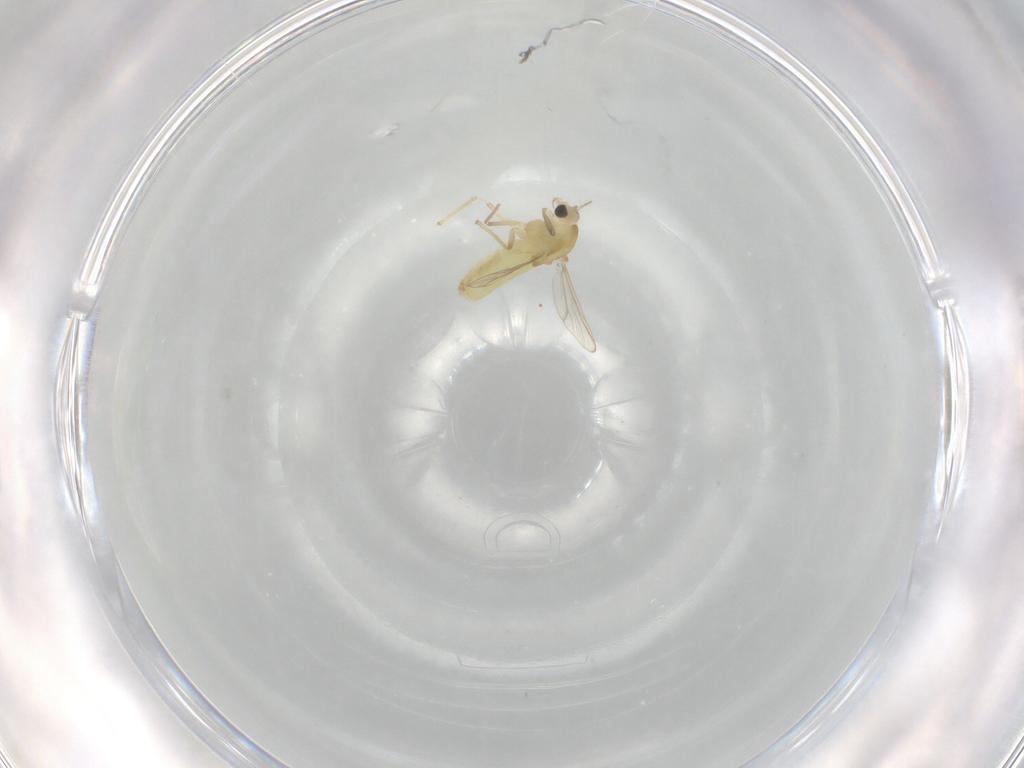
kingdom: Animalia
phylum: Arthropoda
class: Insecta
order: Diptera
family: Chironomidae
